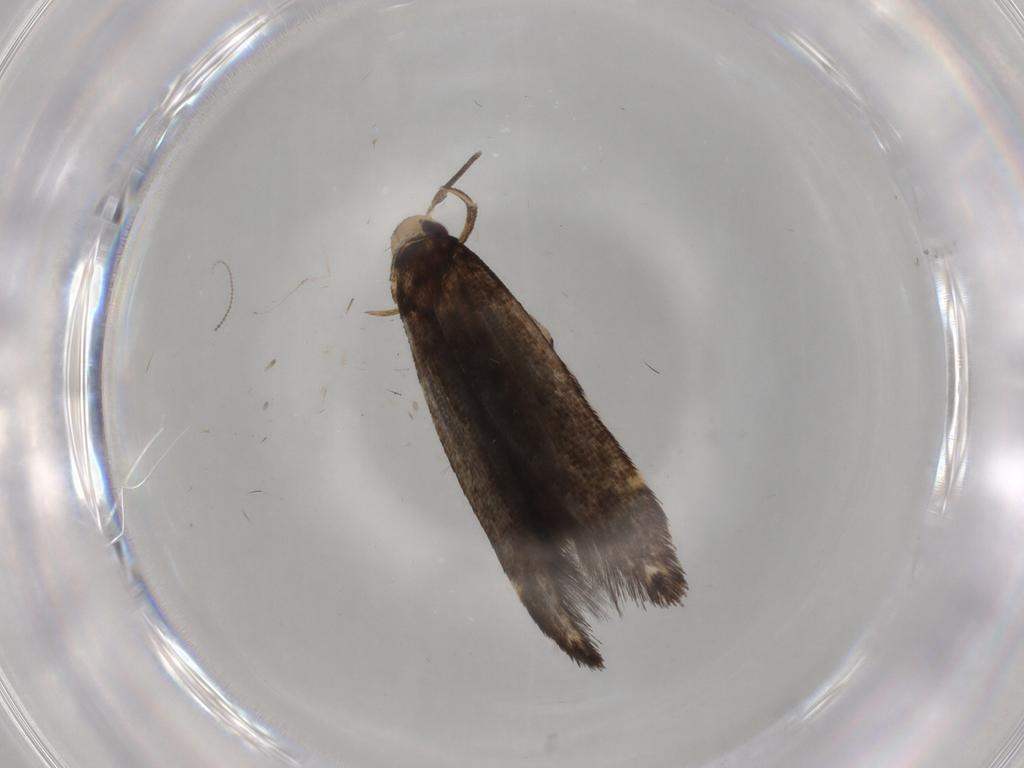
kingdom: Animalia
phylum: Arthropoda
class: Insecta
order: Lepidoptera
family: Cosmopterigidae
